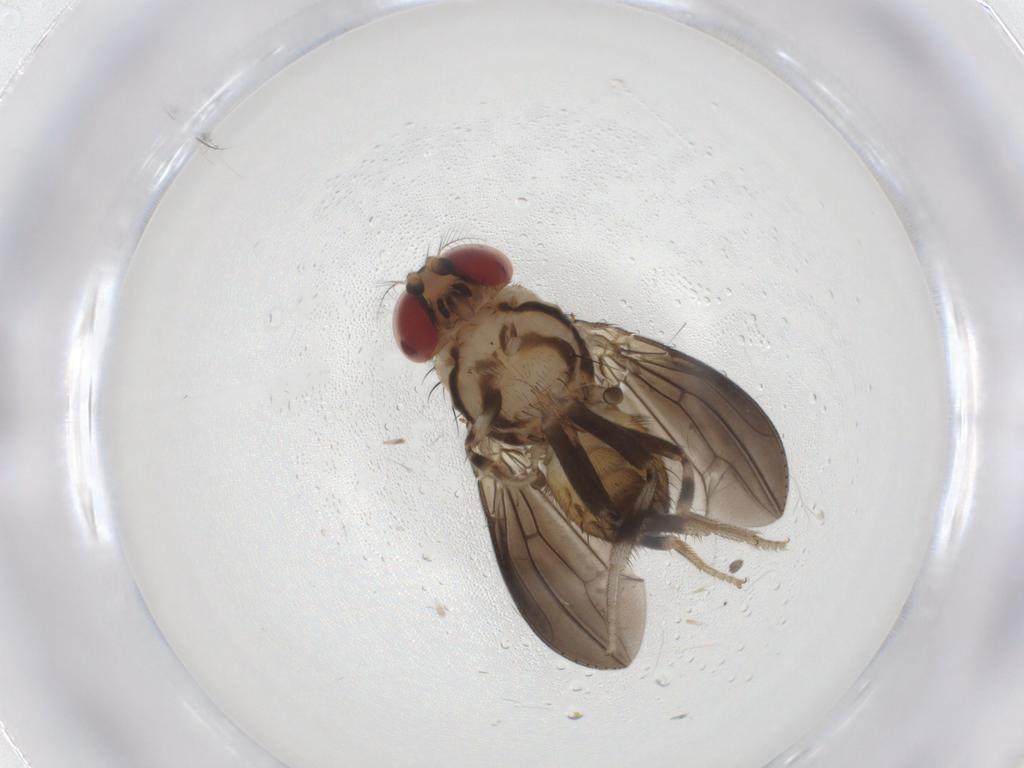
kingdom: Animalia
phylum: Arthropoda
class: Insecta
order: Diptera
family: Drosophilidae
